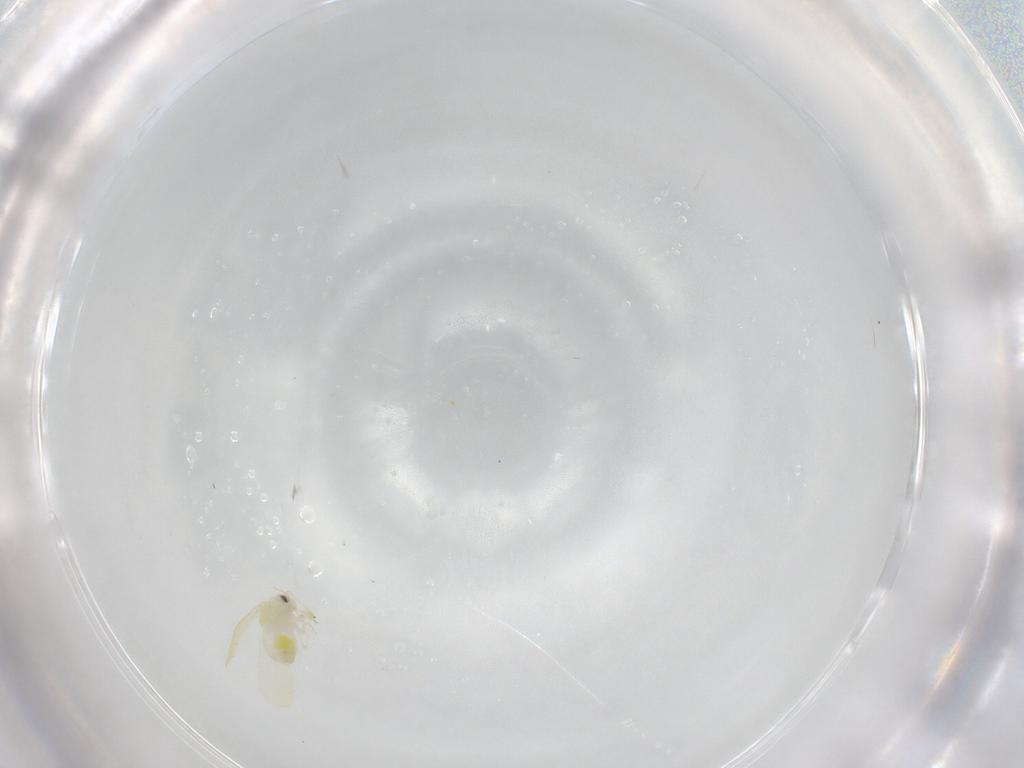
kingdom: Animalia
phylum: Arthropoda
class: Insecta
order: Hemiptera
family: Aleyrodidae
